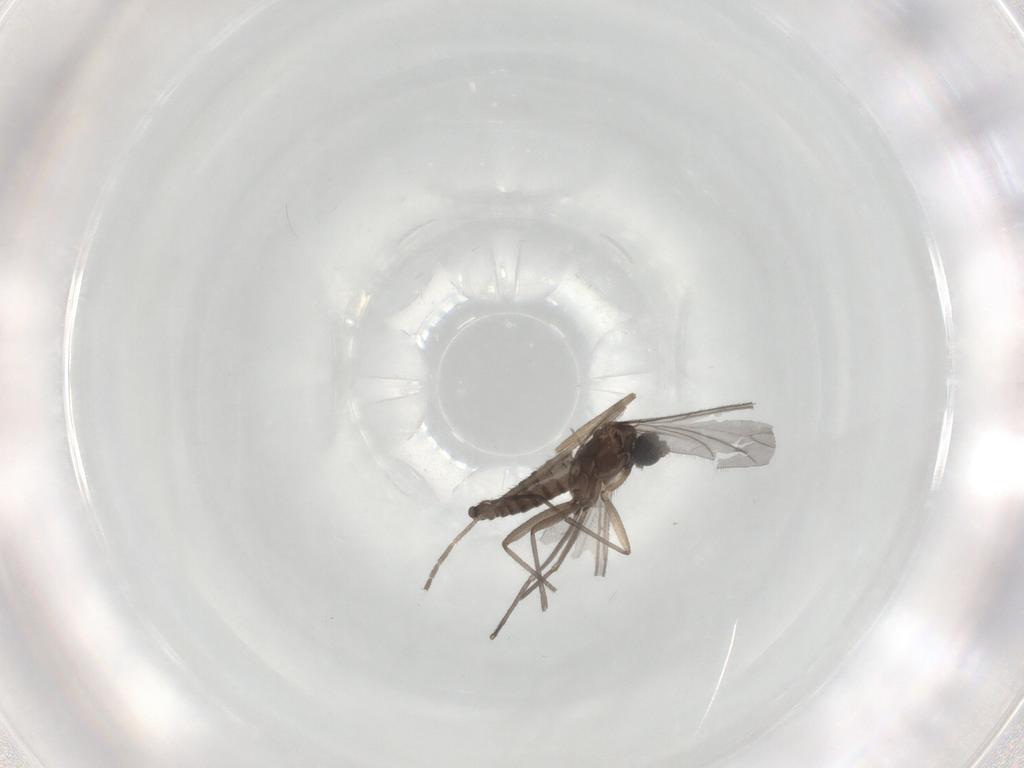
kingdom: Animalia
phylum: Arthropoda
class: Insecta
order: Diptera
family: Sciaridae
